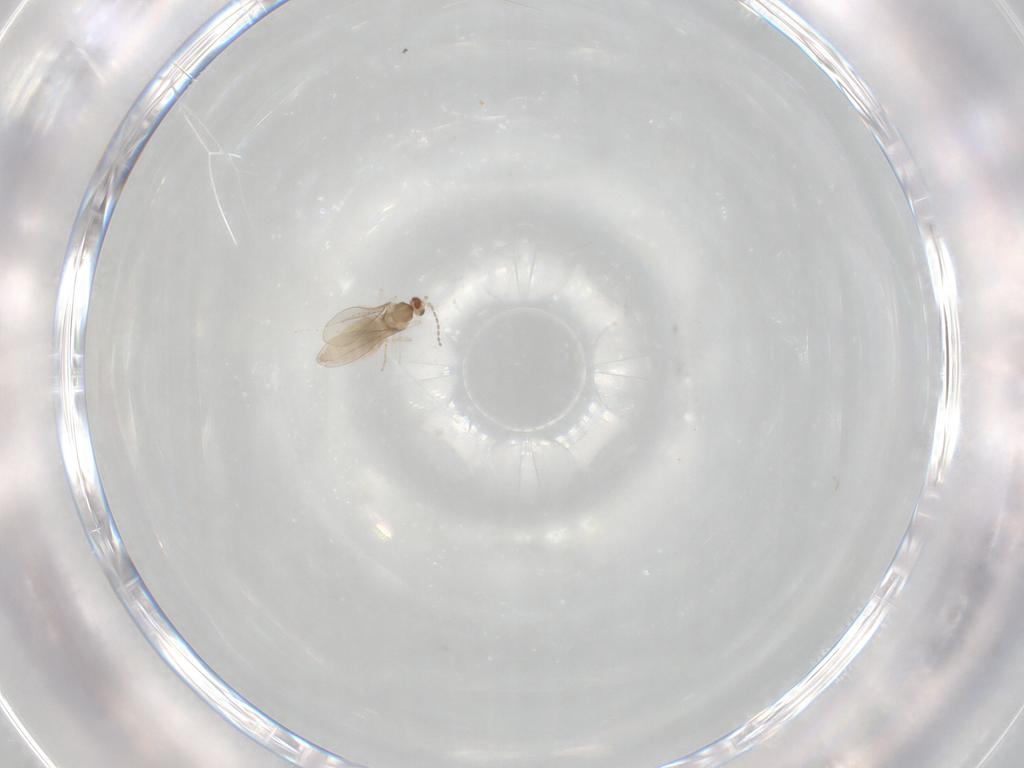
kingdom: Animalia
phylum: Arthropoda
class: Insecta
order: Diptera
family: Cecidomyiidae
